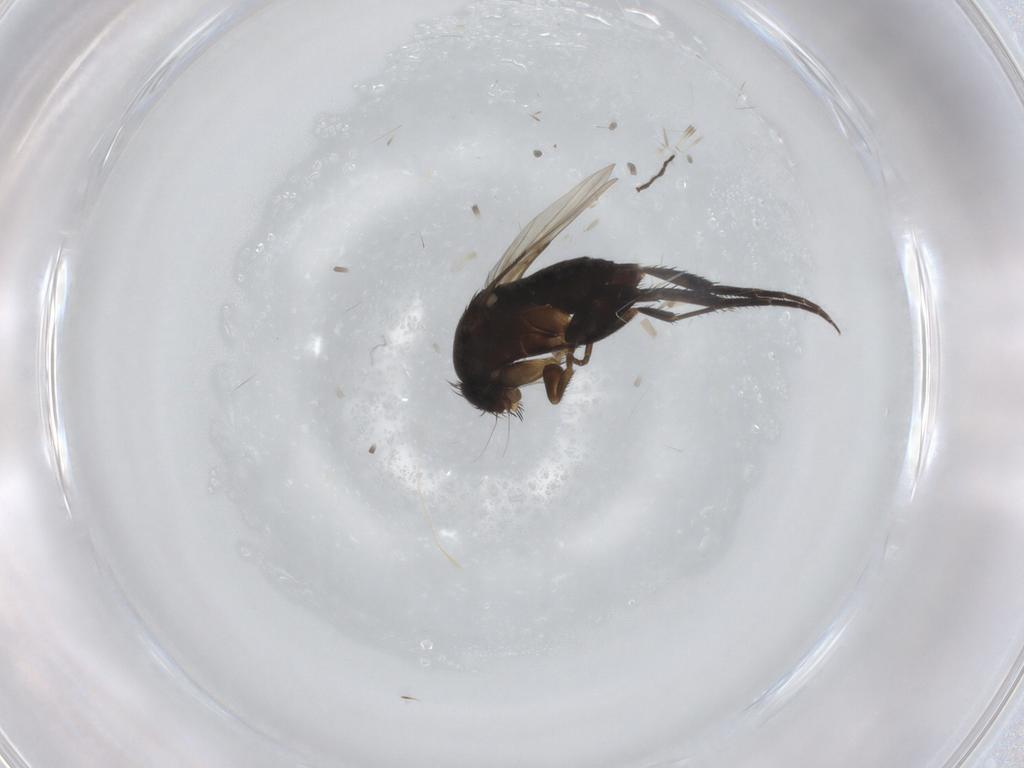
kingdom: Animalia
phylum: Arthropoda
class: Insecta
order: Diptera
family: Phoridae
